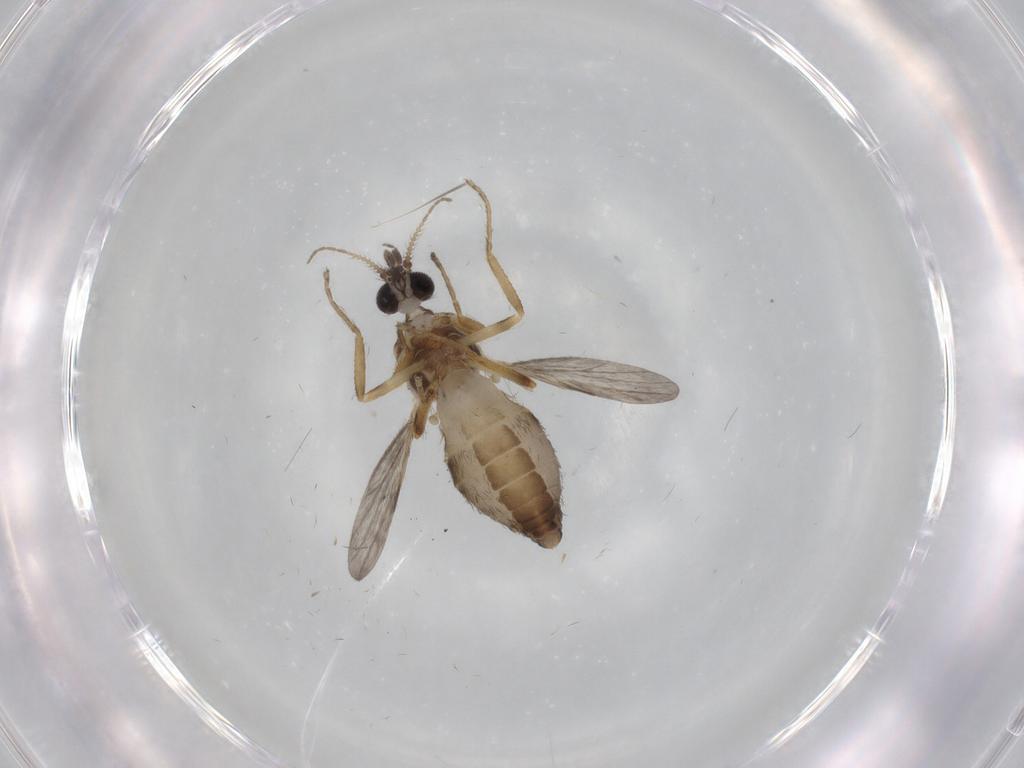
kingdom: Animalia
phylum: Arthropoda
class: Insecta
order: Diptera
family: Ceratopogonidae
